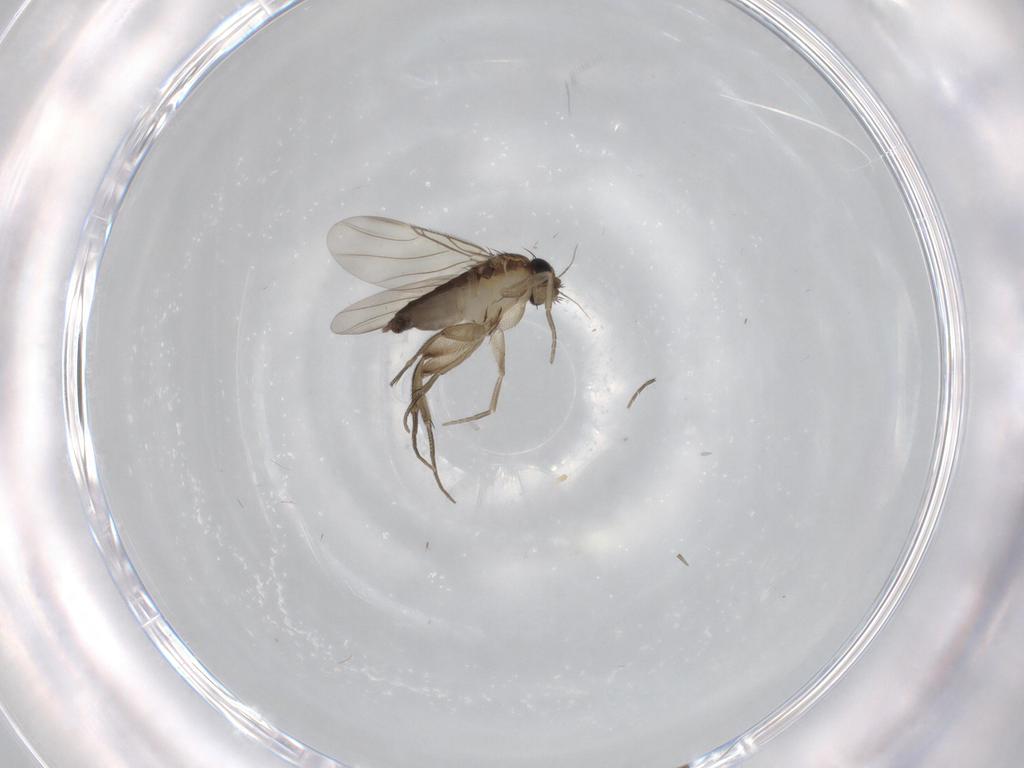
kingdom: Animalia
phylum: Arthropoda
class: Insecta
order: Diptera
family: Phoridae
